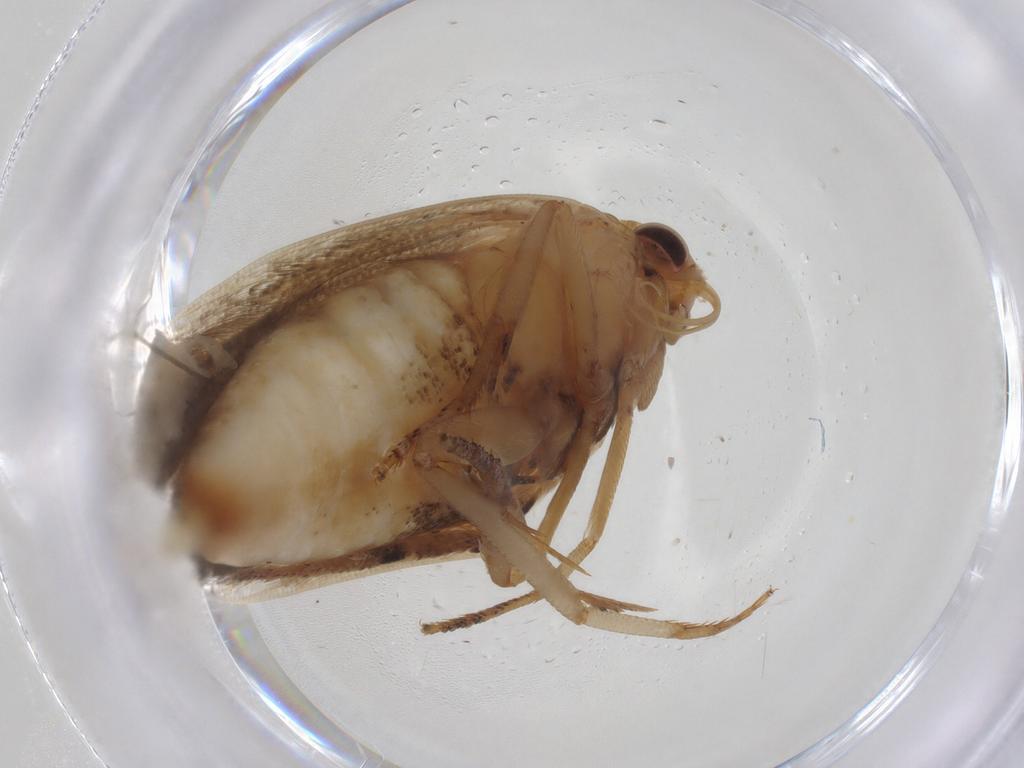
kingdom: Animalia
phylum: Arthropoda
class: Insecta
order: Lepidoptera
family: Gelechiidae
